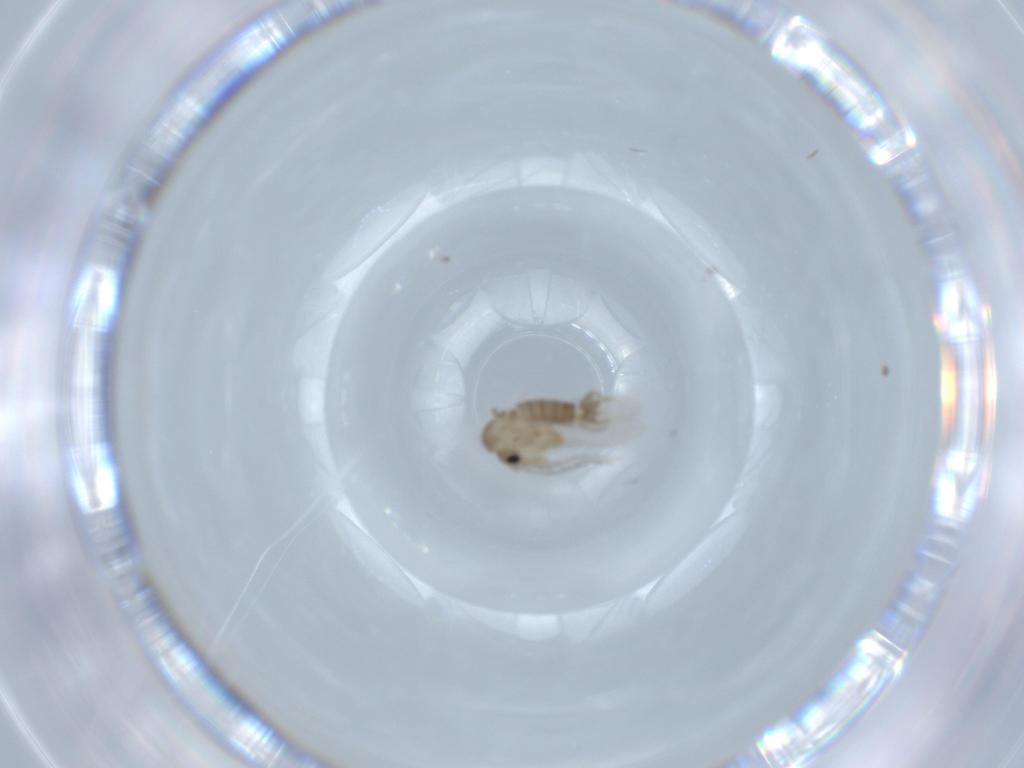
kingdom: Animalia
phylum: Arthropoda
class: Insecta
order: Diptera
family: Psychodidae
